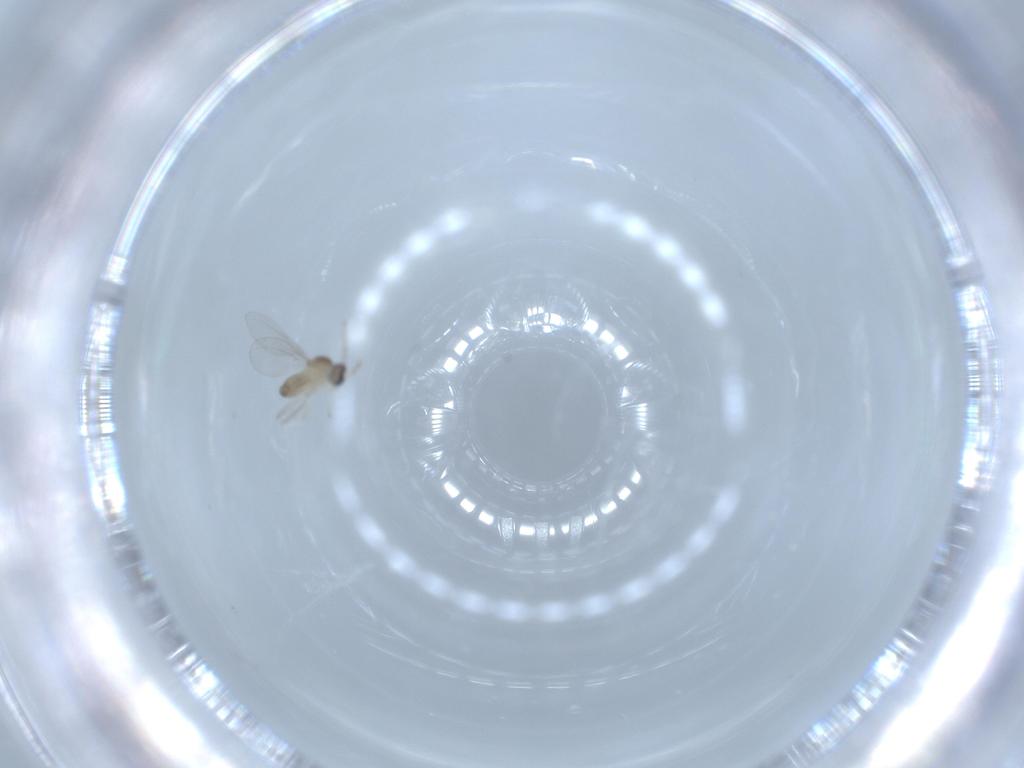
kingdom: Animalia
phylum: Arthropoda
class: Insecta
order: Diptera
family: Cecidomyiidae
